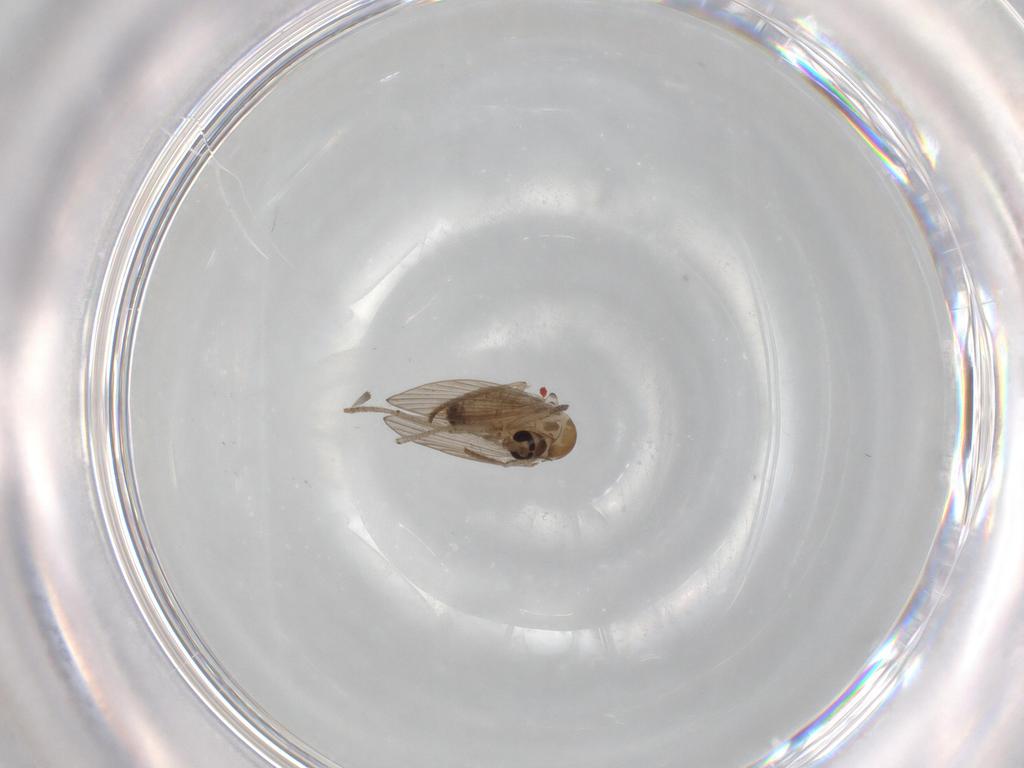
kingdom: Animalia
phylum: Arthropoda
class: Insecta
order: Diptera
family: Psychodidae
